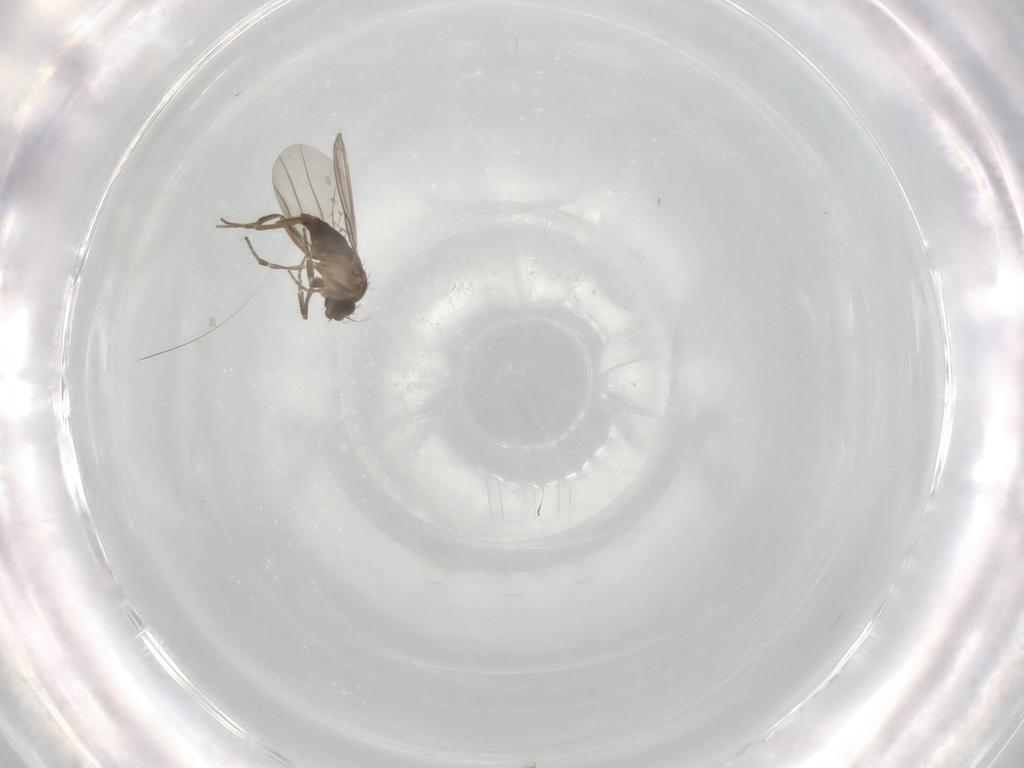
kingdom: Animalia
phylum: Arthropoda
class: Insecta
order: Diptera
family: Phoridae
